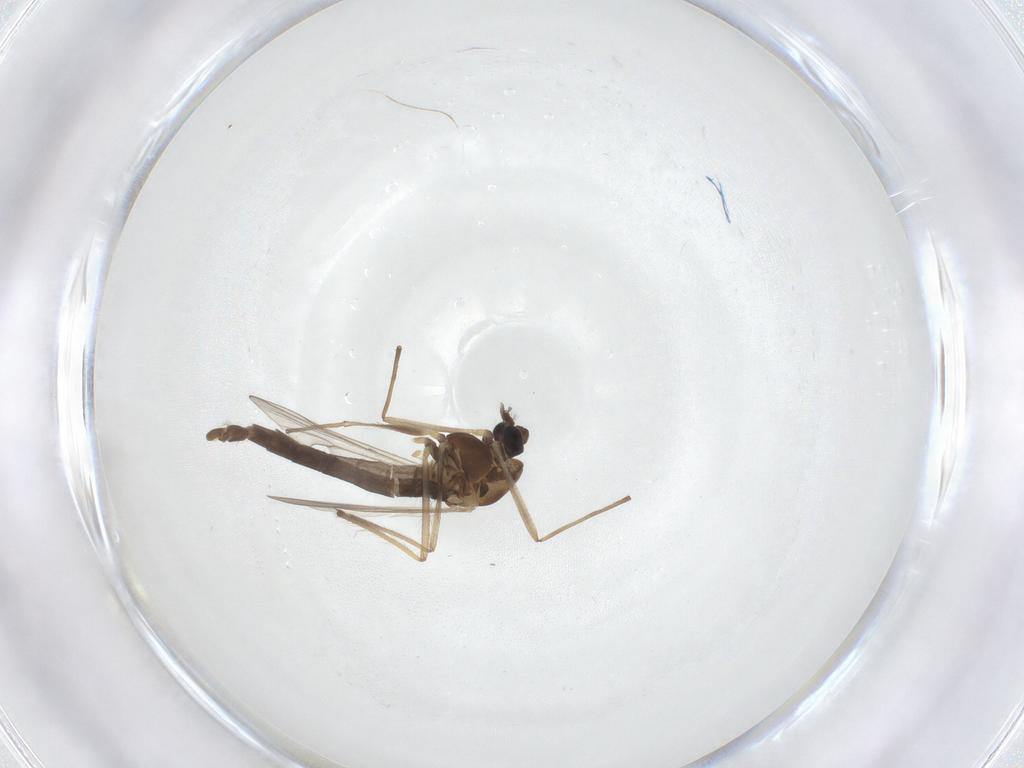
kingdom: Animalia
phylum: Arthropoda
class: Insecta
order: Diptera
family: Chironomidae
